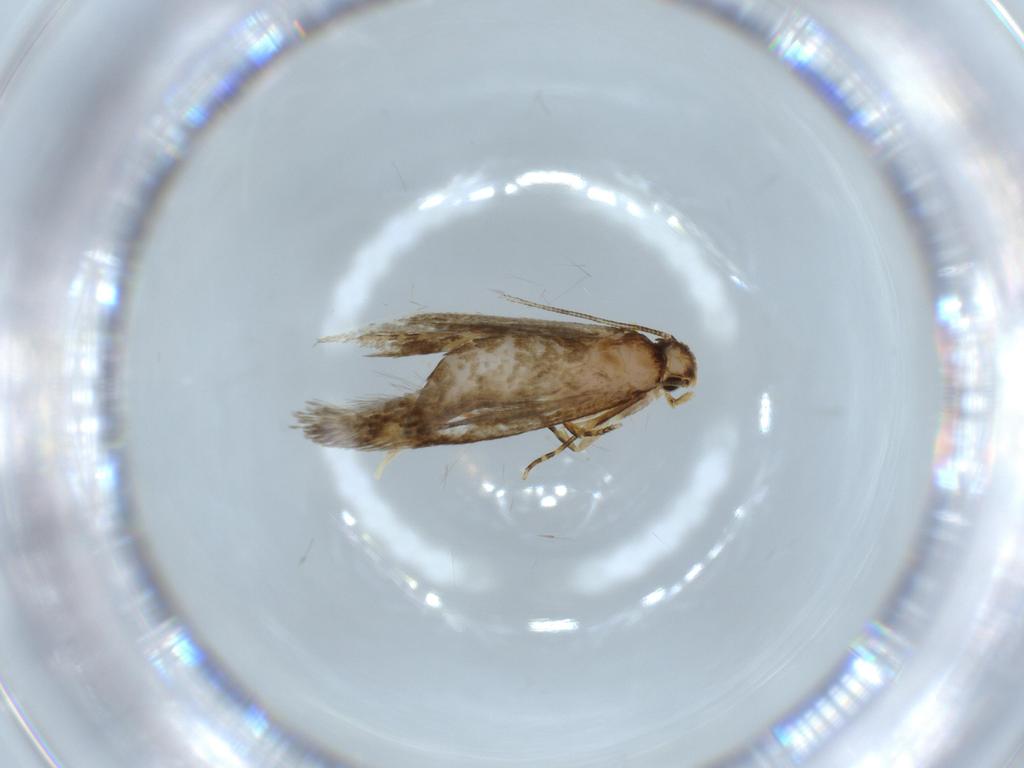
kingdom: Animalia
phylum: Arthropoda
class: Insecta
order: Lepidoptera
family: Tineidae
